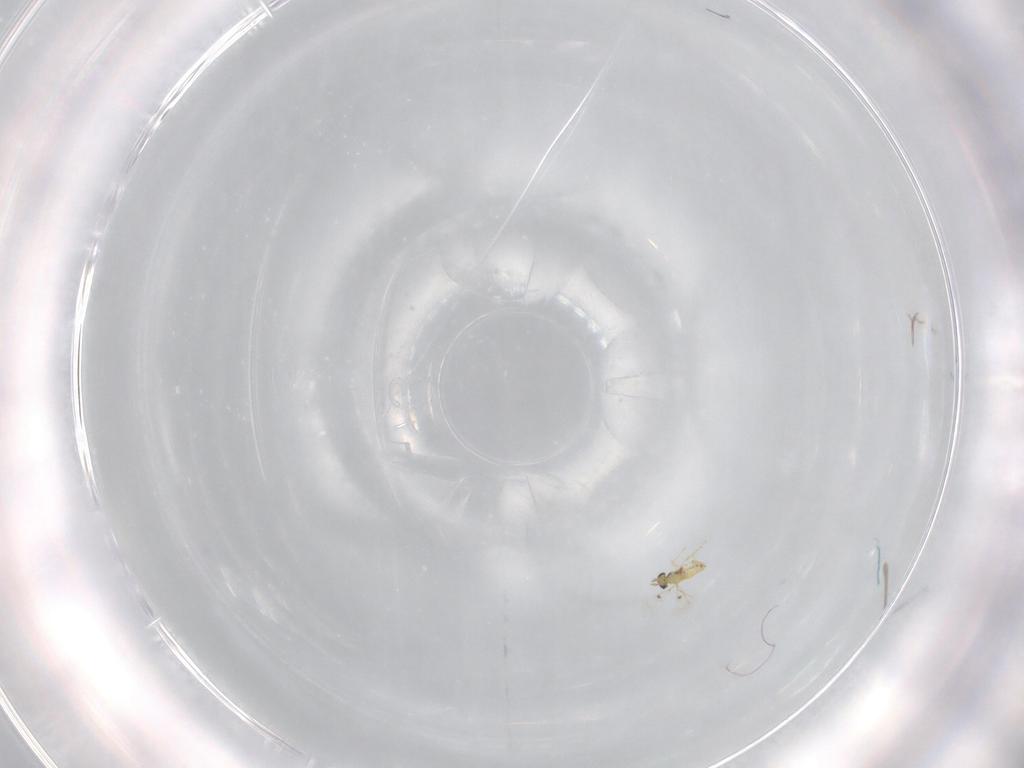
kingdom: Animalia
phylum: Arthropoda
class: Insecta
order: Hymenoptera
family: Trichogrammatidae
